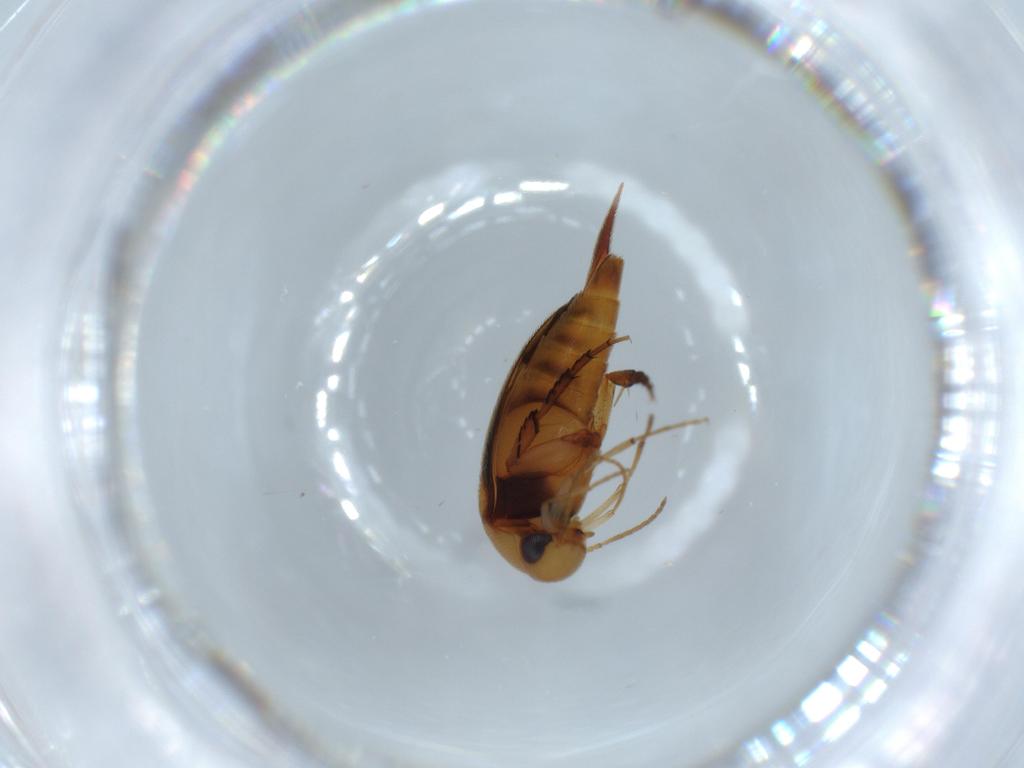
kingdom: Animalia
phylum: Arthropoda
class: Insecta
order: Coleoptera
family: Mordellidae
